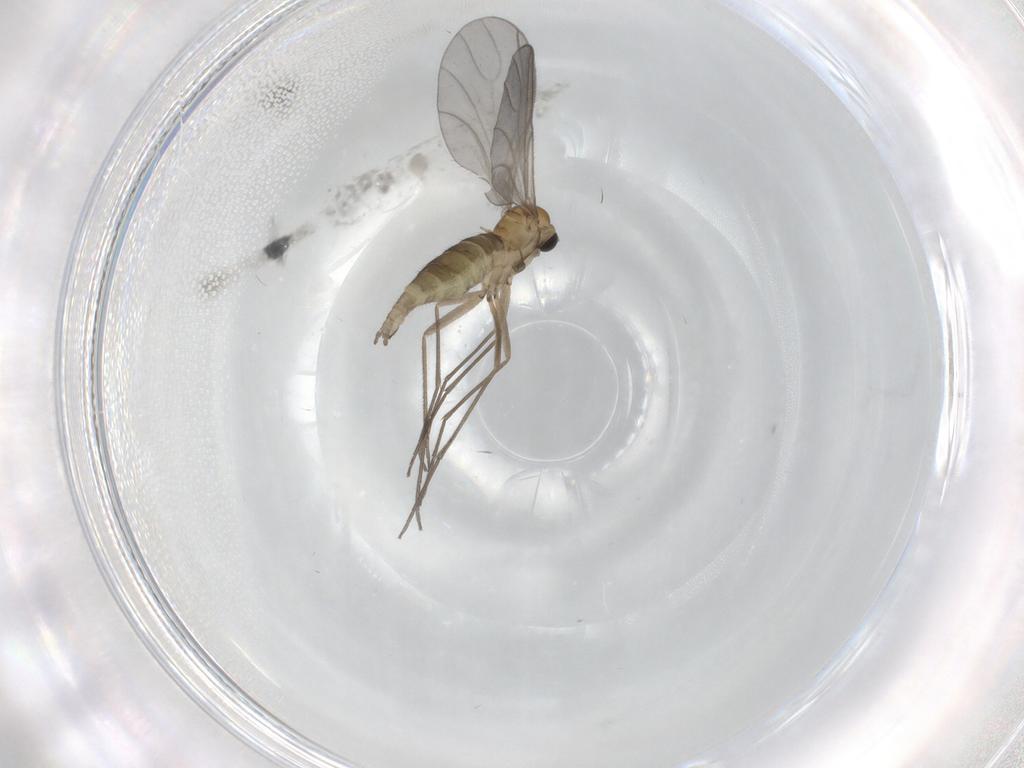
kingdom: Animalia
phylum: Arthropoda
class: Insecta
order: Diptera
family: Sciaridae
